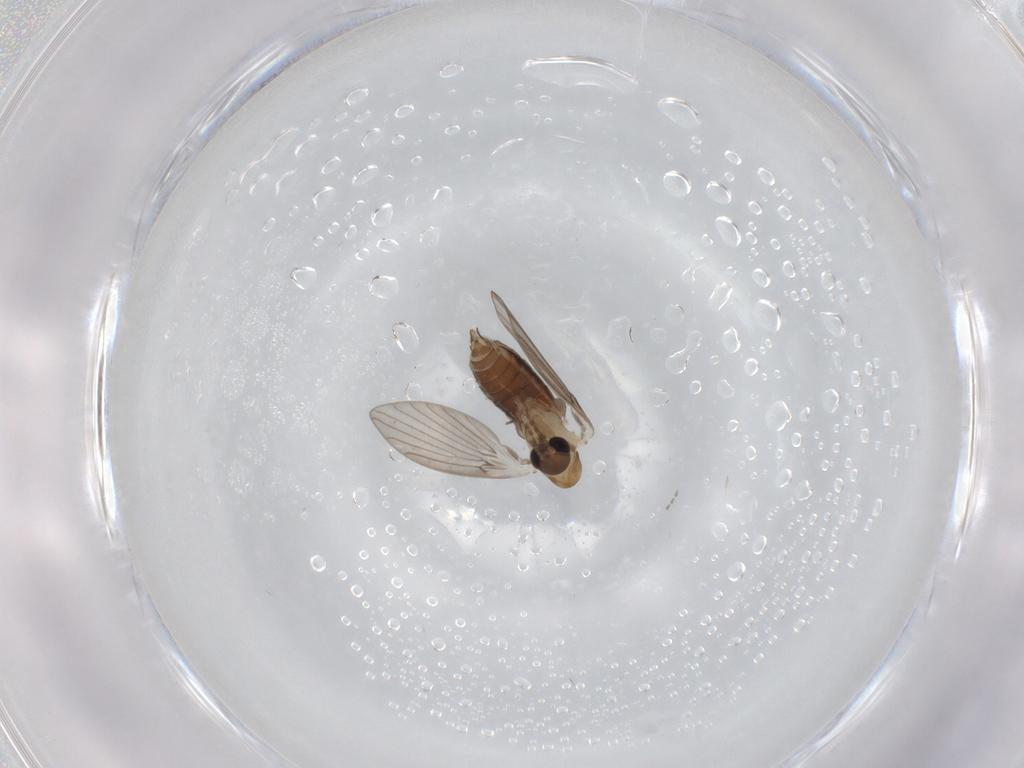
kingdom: Animalia
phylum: Arthropoda
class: Insecta
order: Diptera
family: Psychodidae
